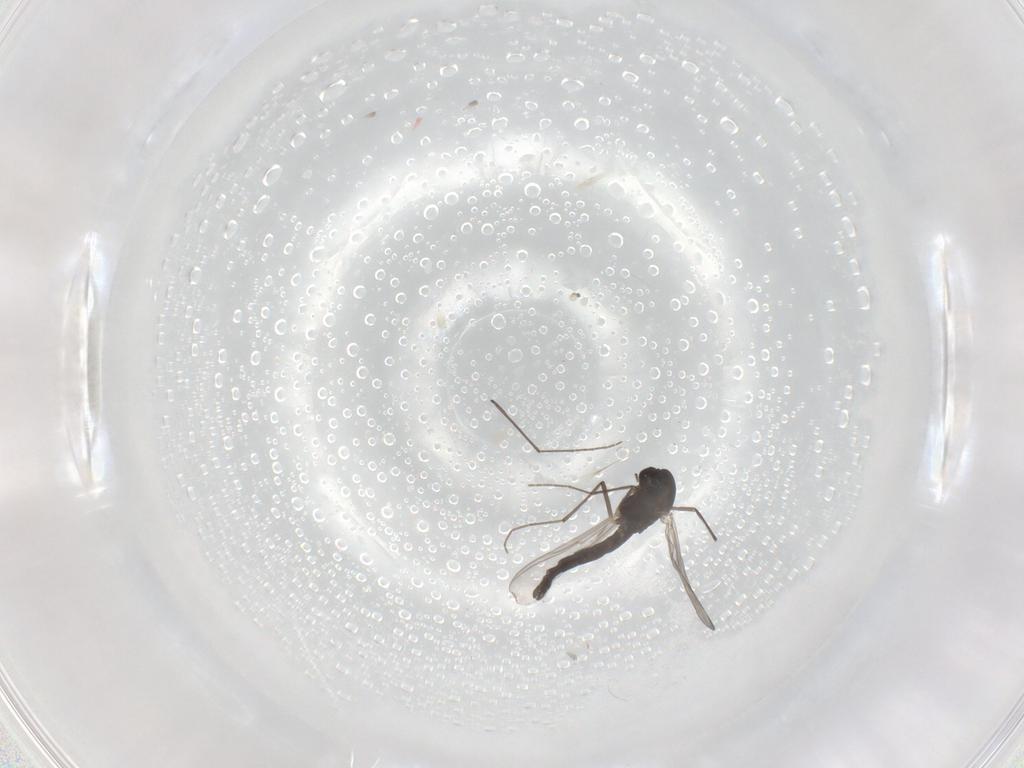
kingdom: Animalia
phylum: Arthropoda
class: Insecta
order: Diptera
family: Chironomidae
